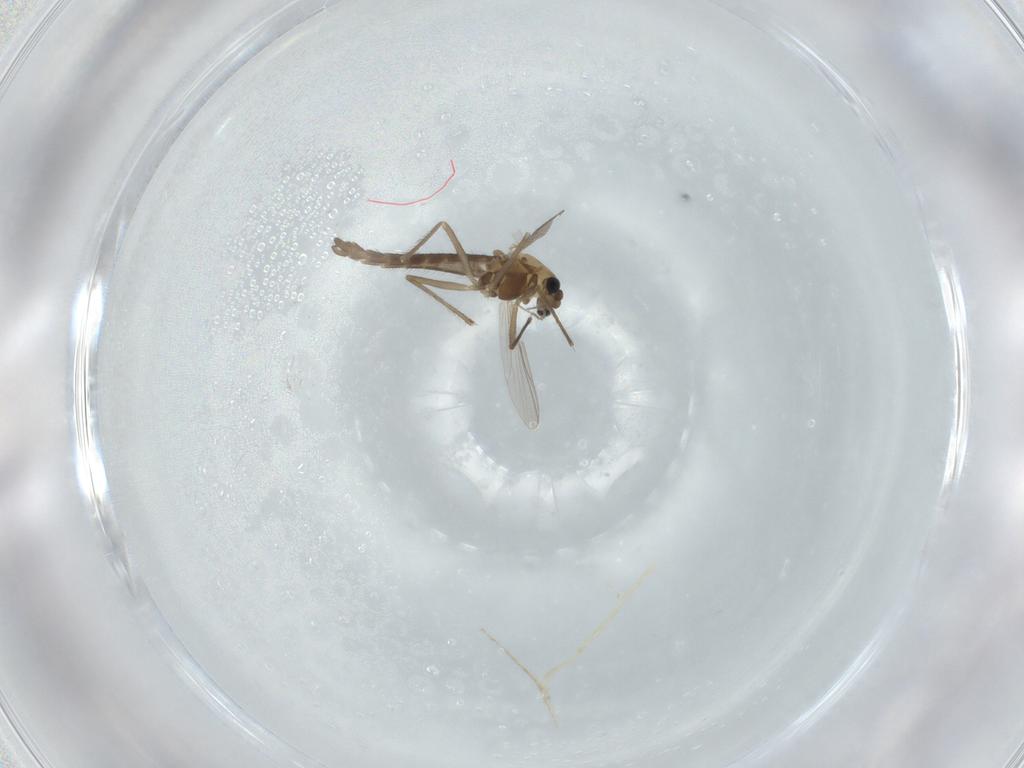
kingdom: Animalia
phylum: Arthropoda
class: Insecta
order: Diptera
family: Chironomidae
